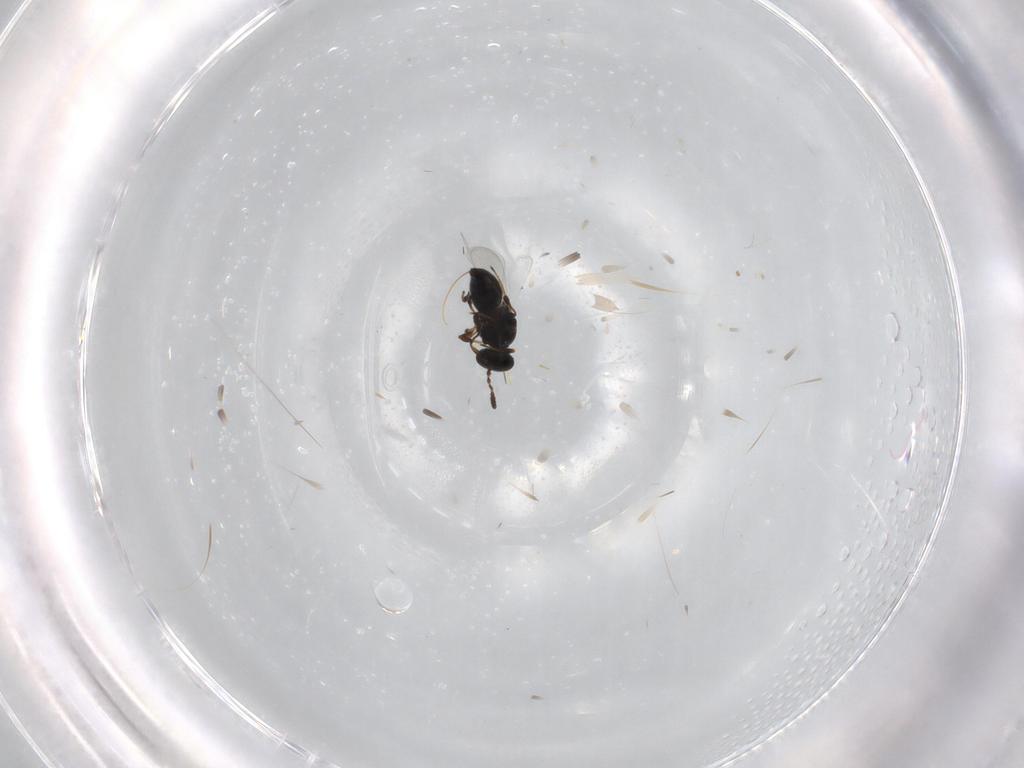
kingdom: Animalia
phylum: Arthropoda
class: Insecta
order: Hymenoptera
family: Platygastridae
